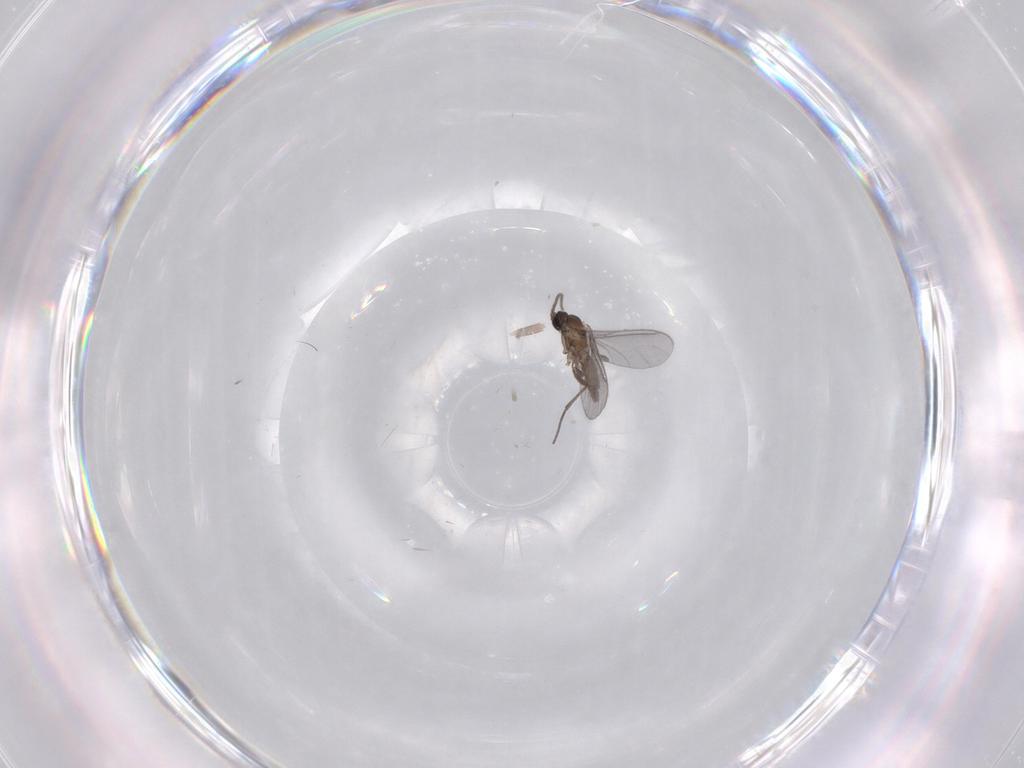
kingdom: Animalia
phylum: Arthropoda
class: Insecta
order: Diptera
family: Sciaridae
